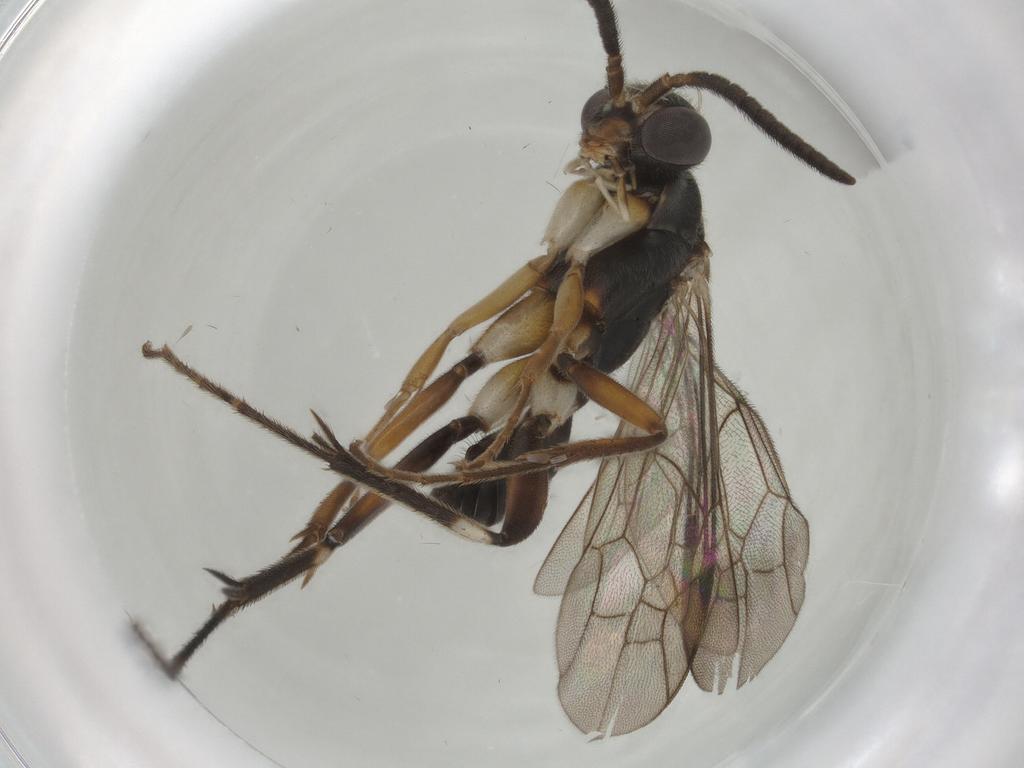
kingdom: Animalia
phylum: Arthropoda
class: Insecta
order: Hymenoptera
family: Pompilidae
